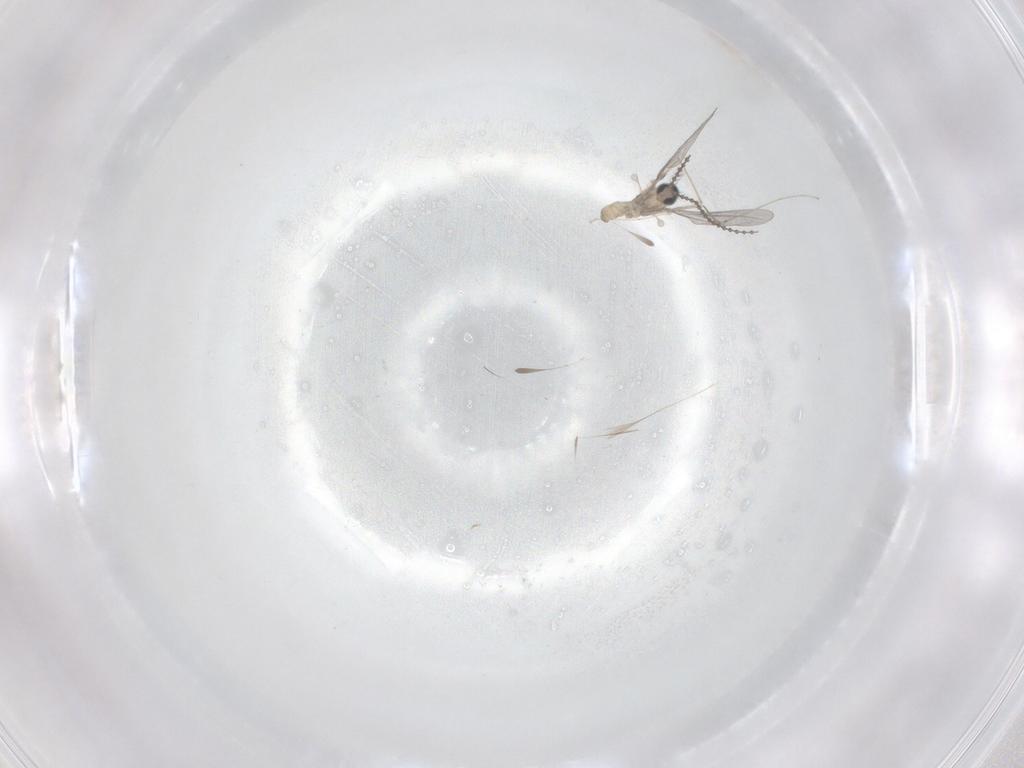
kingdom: Animalia
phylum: Arthropoda
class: Insecta
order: Diptera
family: Cecidomyiidae
